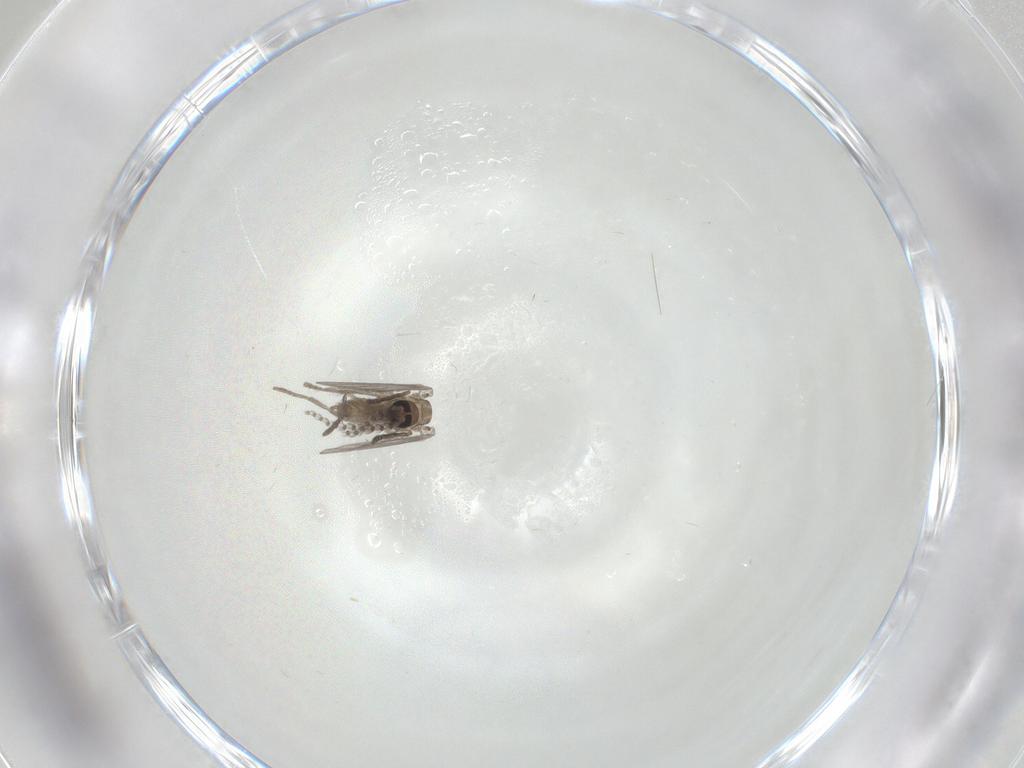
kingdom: Animalia
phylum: Arthropoda
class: Insecta
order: Diptera
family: Psychodidae
